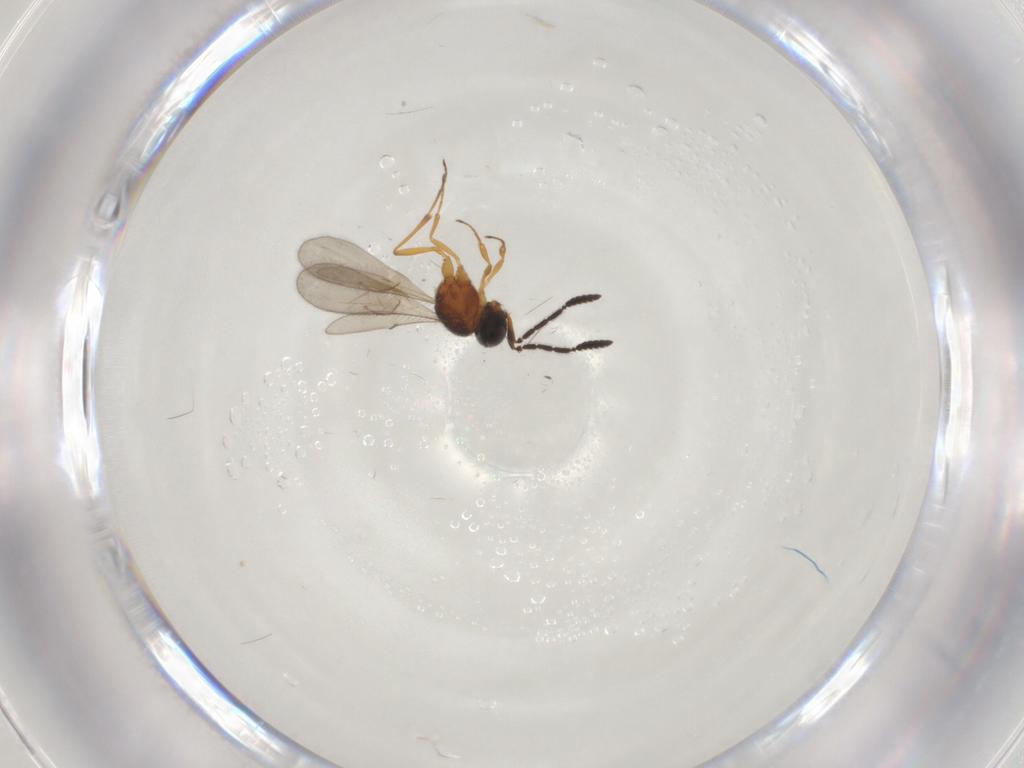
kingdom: Animalia
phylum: Arthropoda
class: Insecta
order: Hymenoptera
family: Scelionidae
